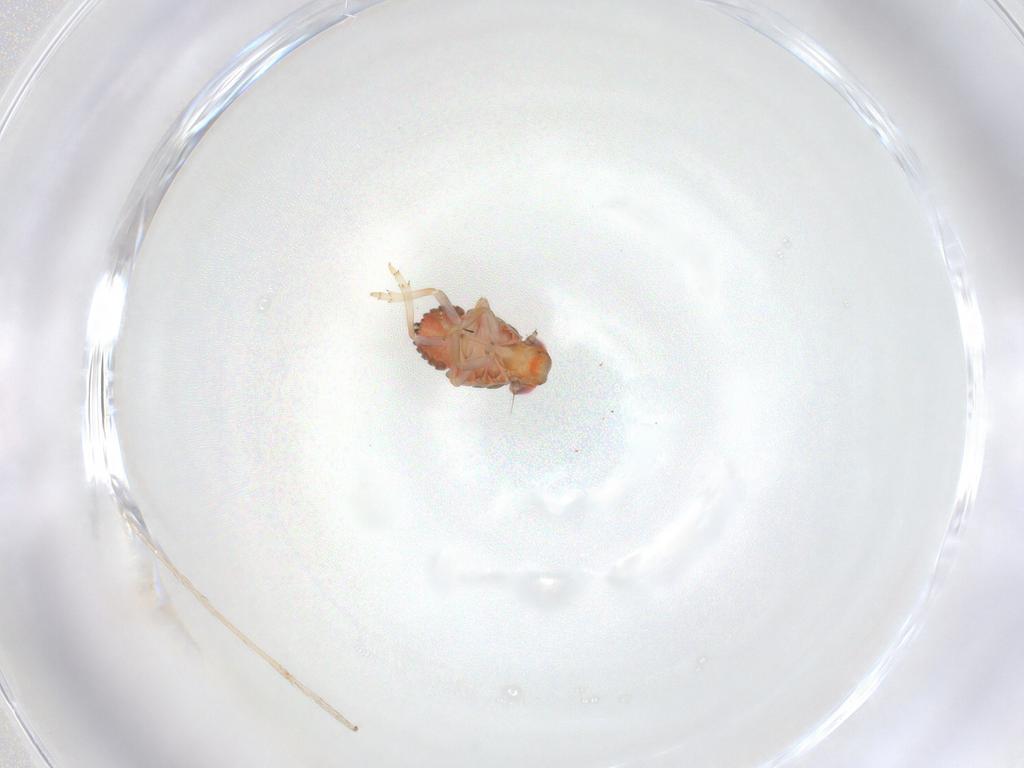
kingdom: Animalia
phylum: Arthropoda
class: Insecta
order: Hemiptera
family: Issidae
